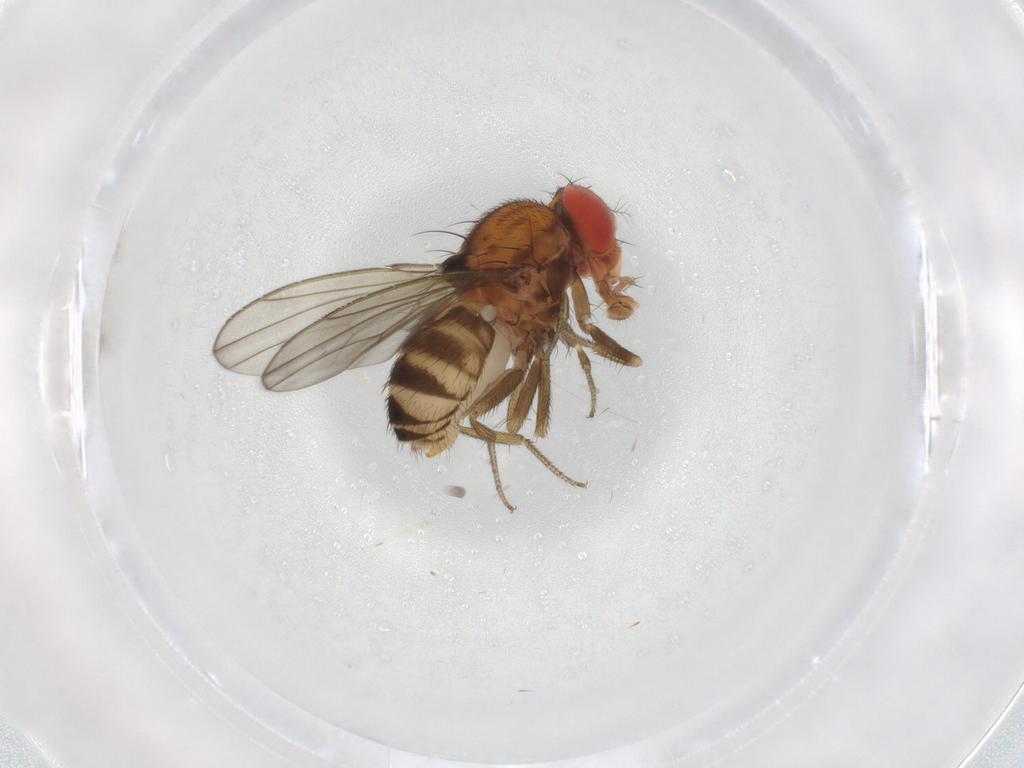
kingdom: Animalia
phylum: Arthropoda
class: Insecta
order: Diptera
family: Sciaridae
